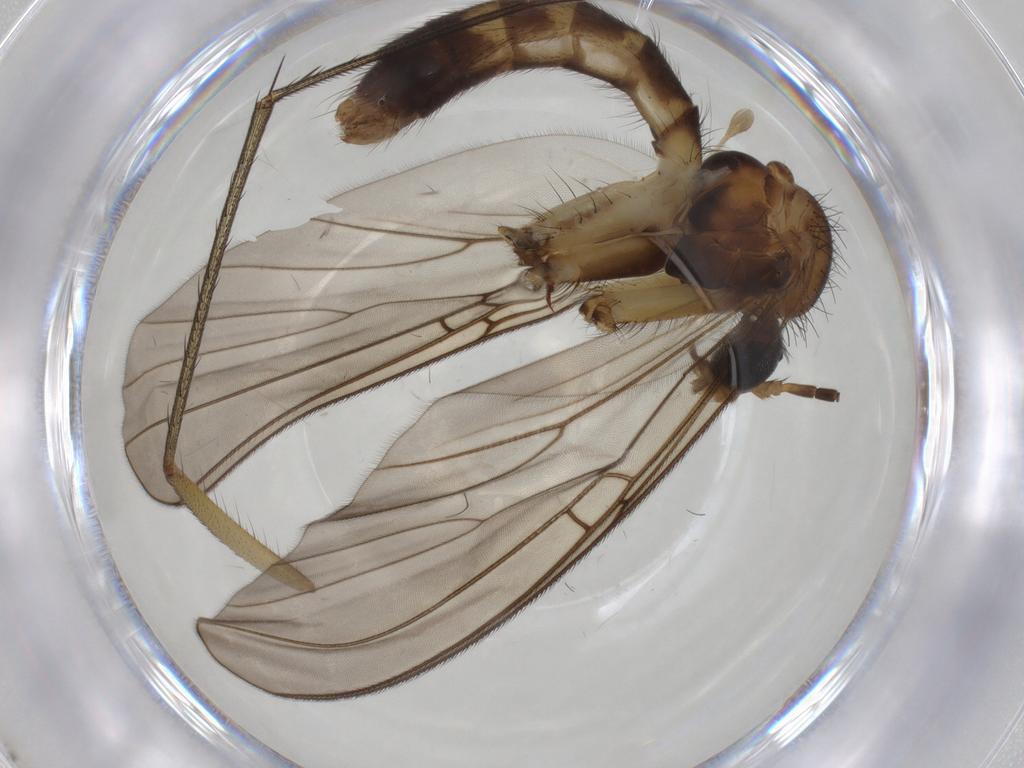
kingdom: Animalia
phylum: Arthropoda
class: Insecta
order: Diptera
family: Mycetophilidae
